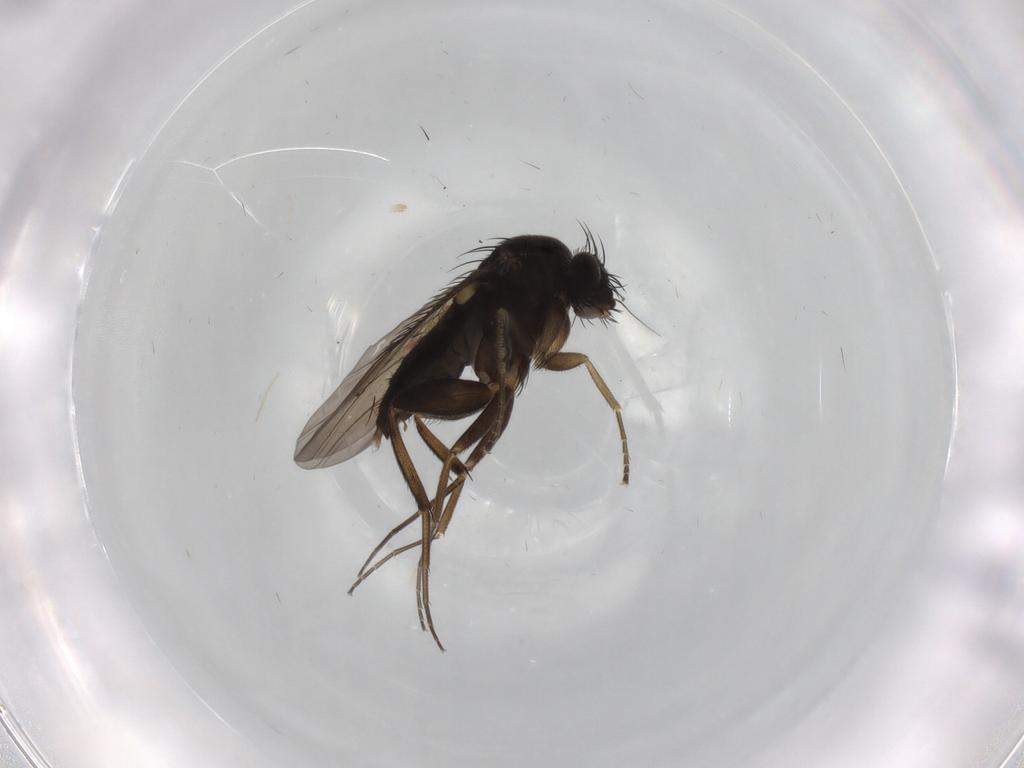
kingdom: Animalia
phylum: Arthropoda
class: Insecta
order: Diptera
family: Phoridae
